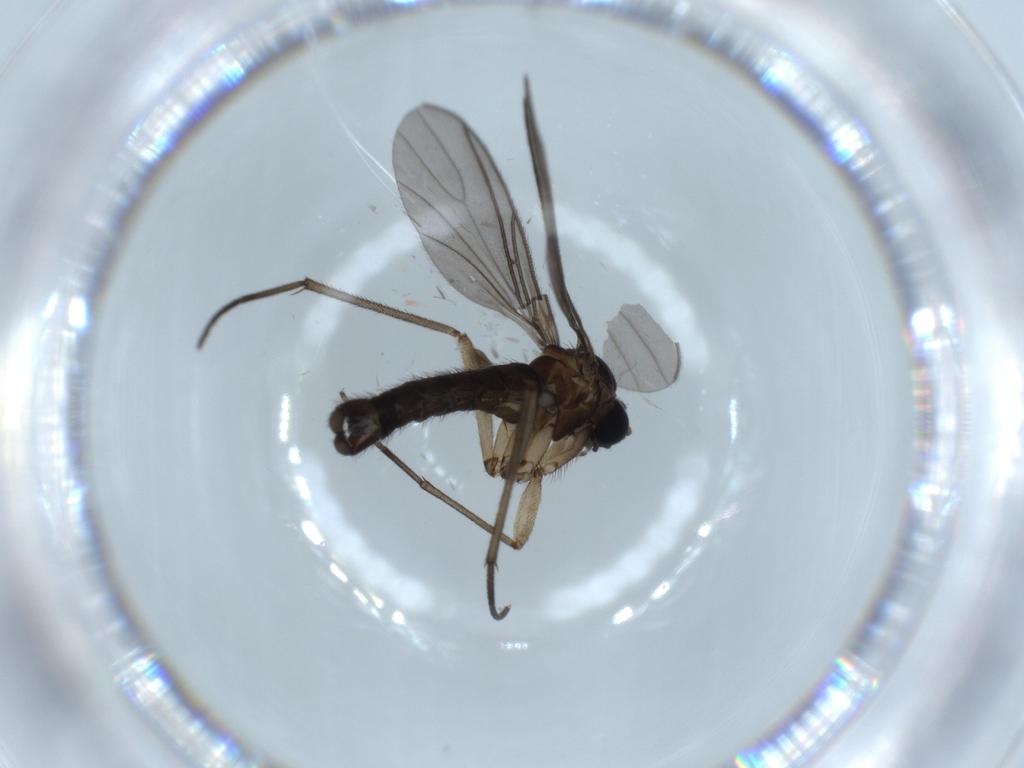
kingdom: Animalia
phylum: Arthropoda
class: Insecta
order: Diptera
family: Sciaridae
